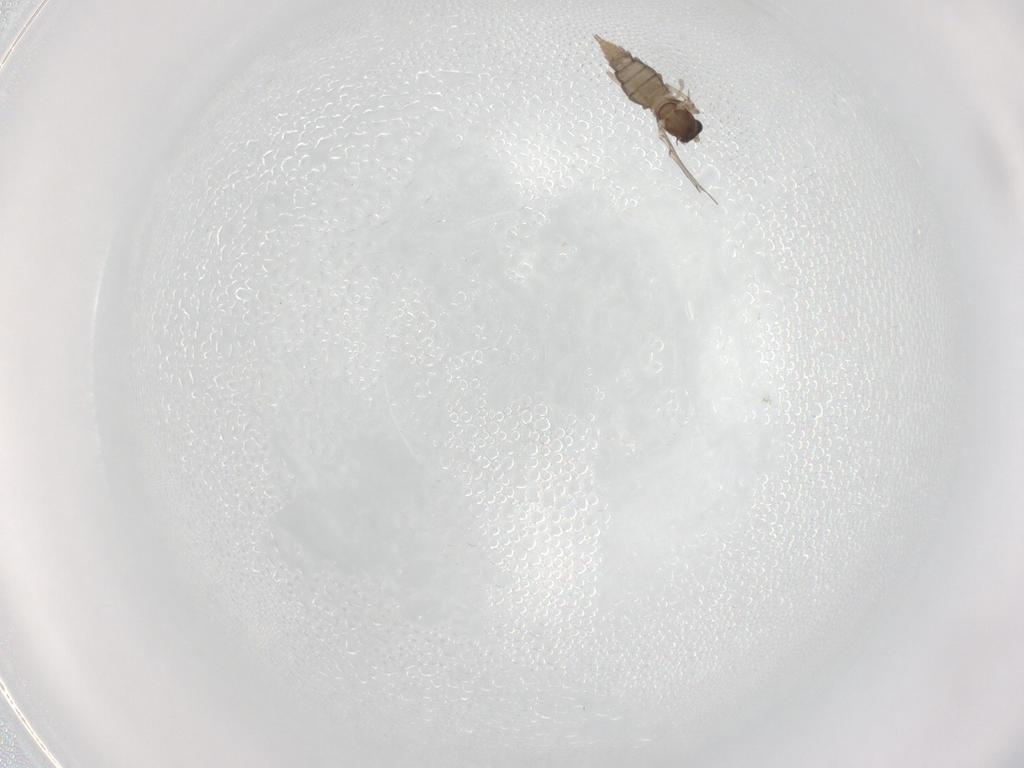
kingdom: Animalia
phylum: Arthropoda
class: Insecta
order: Diptera
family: Cecidomyiidae
